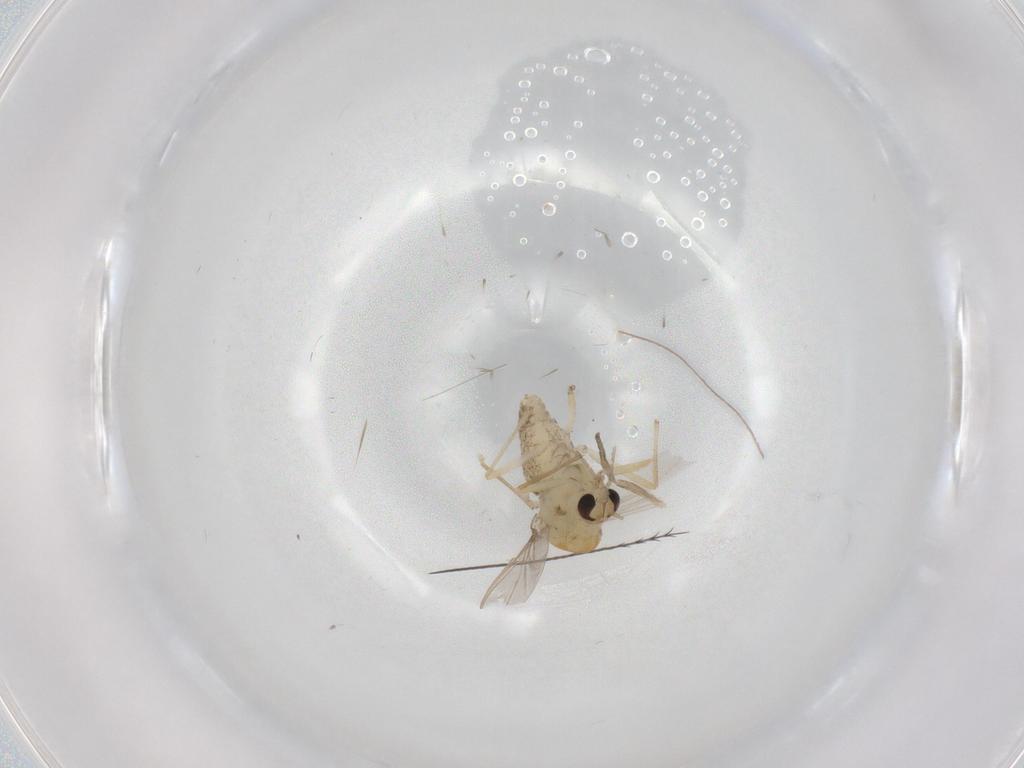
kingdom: Animalia
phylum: Arthropoda
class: Insecta
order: Diptera
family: Chironomidae
